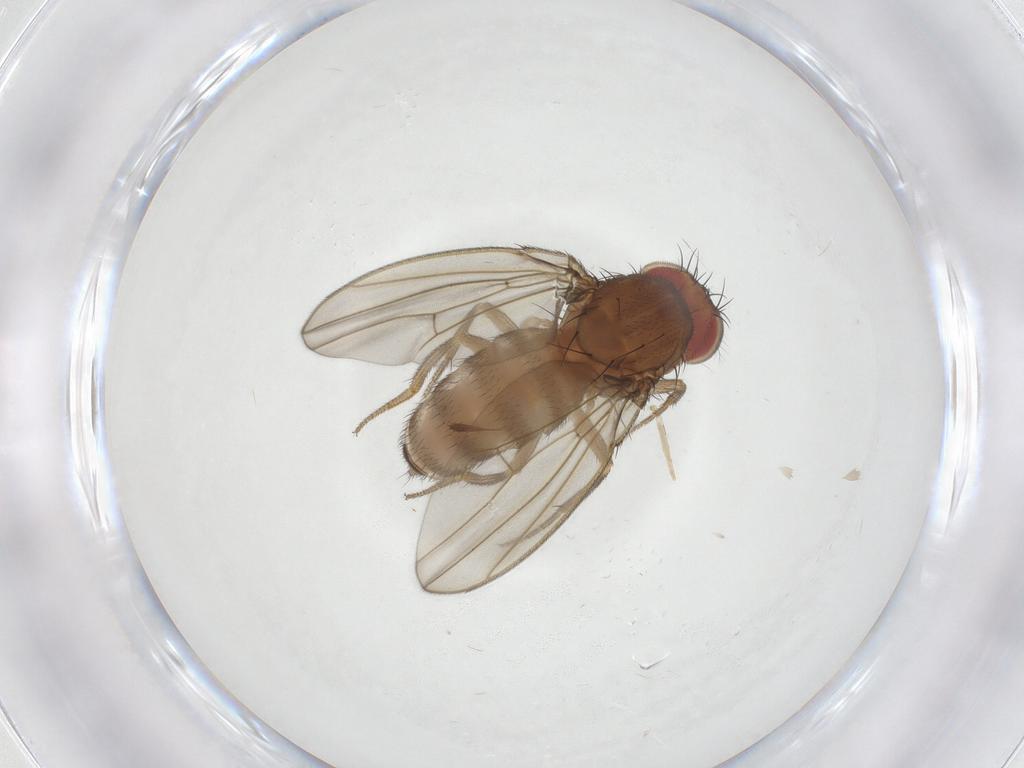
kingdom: Animalia
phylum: Arthropoda
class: Insecta
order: Diptera
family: Drosophilidae
